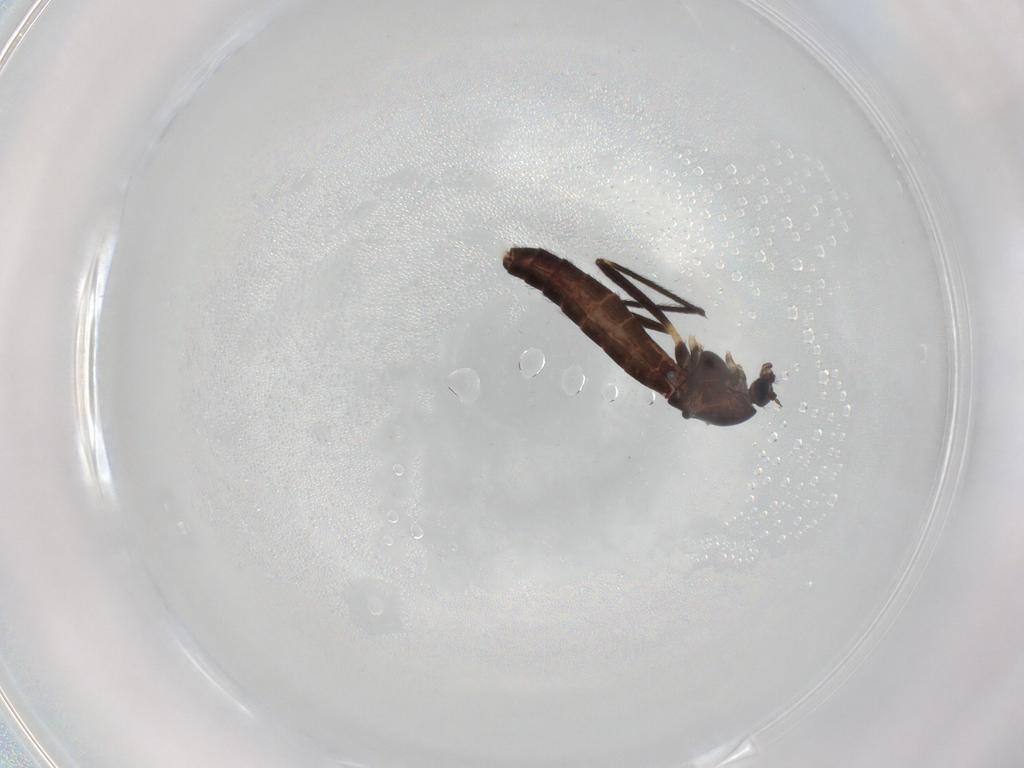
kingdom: Animalia
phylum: Arthropoda
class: Insecta
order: Diptera
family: Chironomidae
